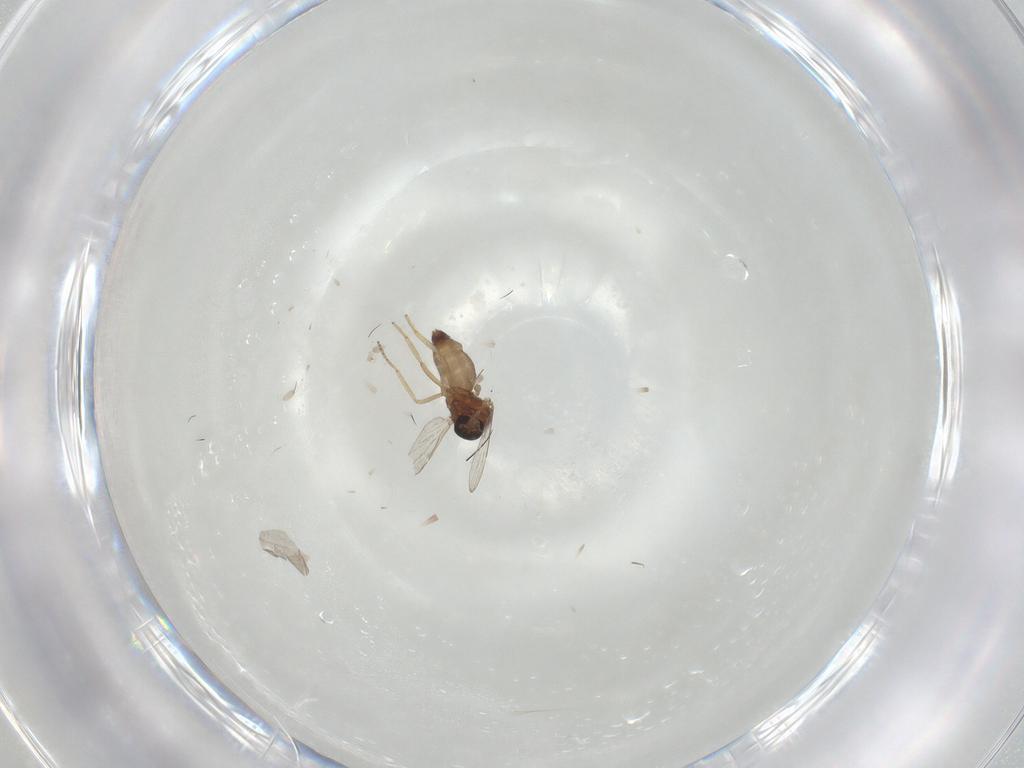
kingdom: Animalia
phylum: Arthropoda
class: Insecta
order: Diptera
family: Ceratopogonidae
